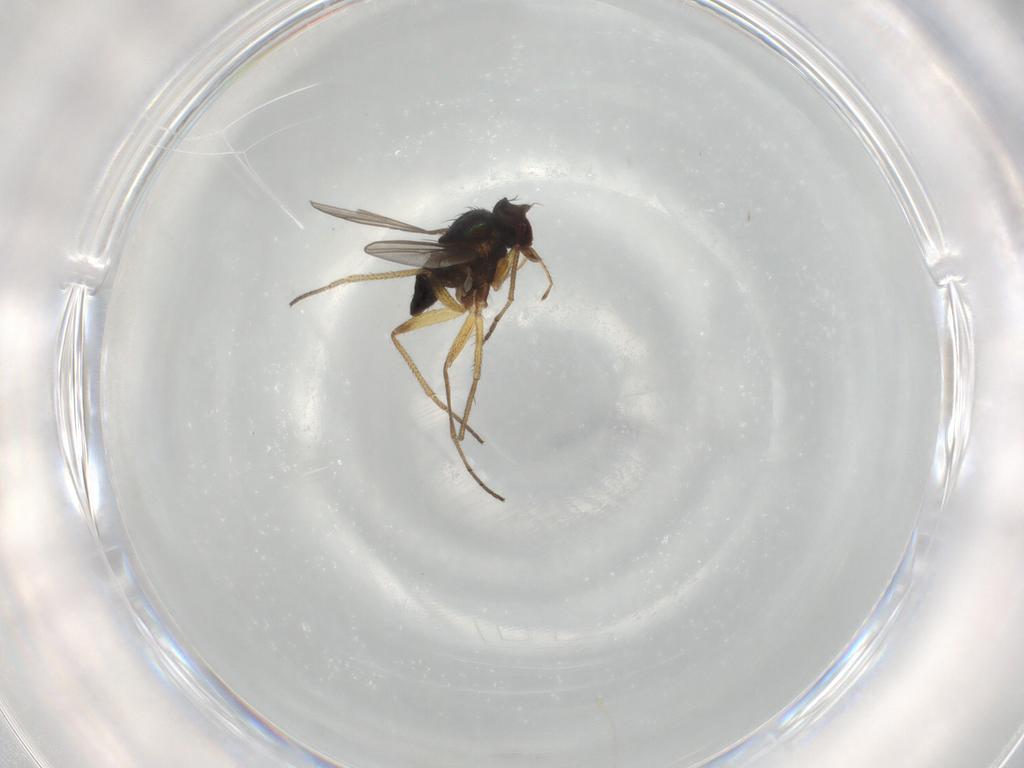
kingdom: Animalia
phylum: Arthropoda
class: Insecta
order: Diptera
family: Dolichopodidae
